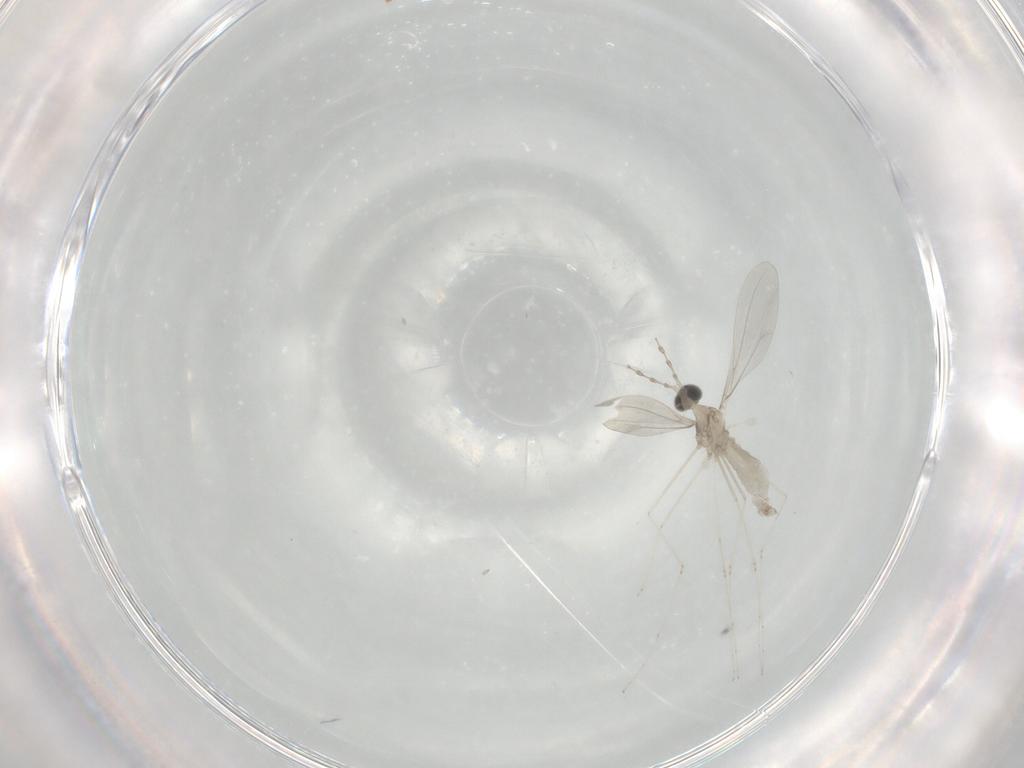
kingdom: Animalia
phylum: Arthropoda
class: Insecta
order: Diptera
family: Cecidomyiidae
